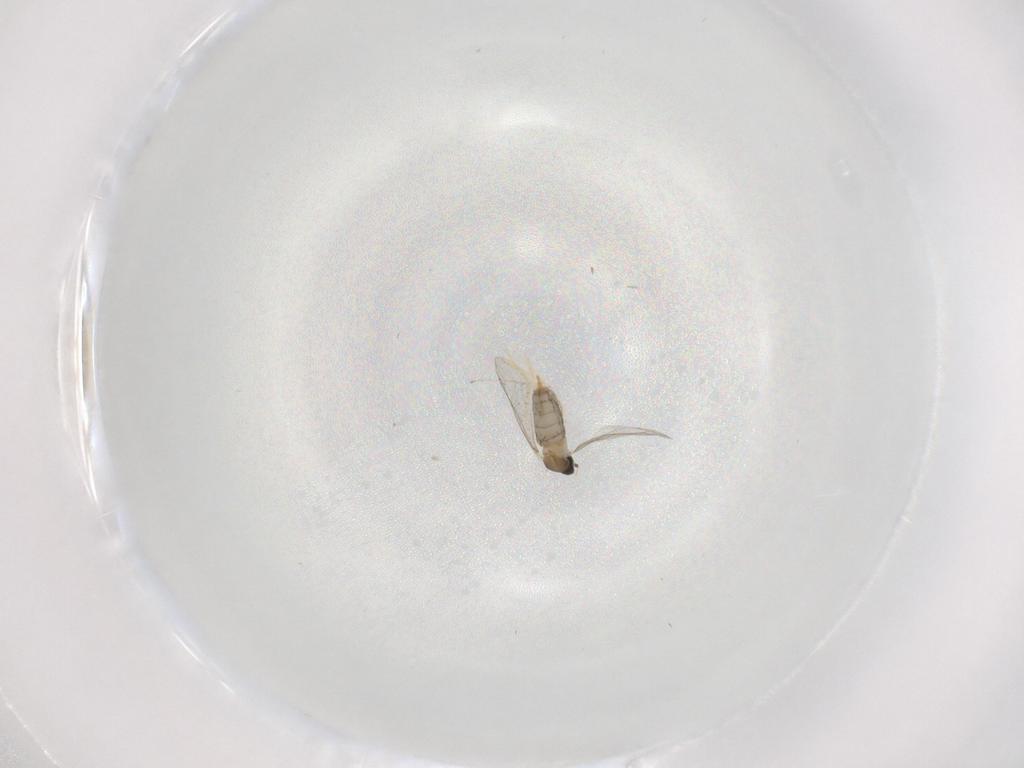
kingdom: Animalia
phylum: Arthropoda
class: Insecta
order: Diptera
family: Cecidomyiidae
